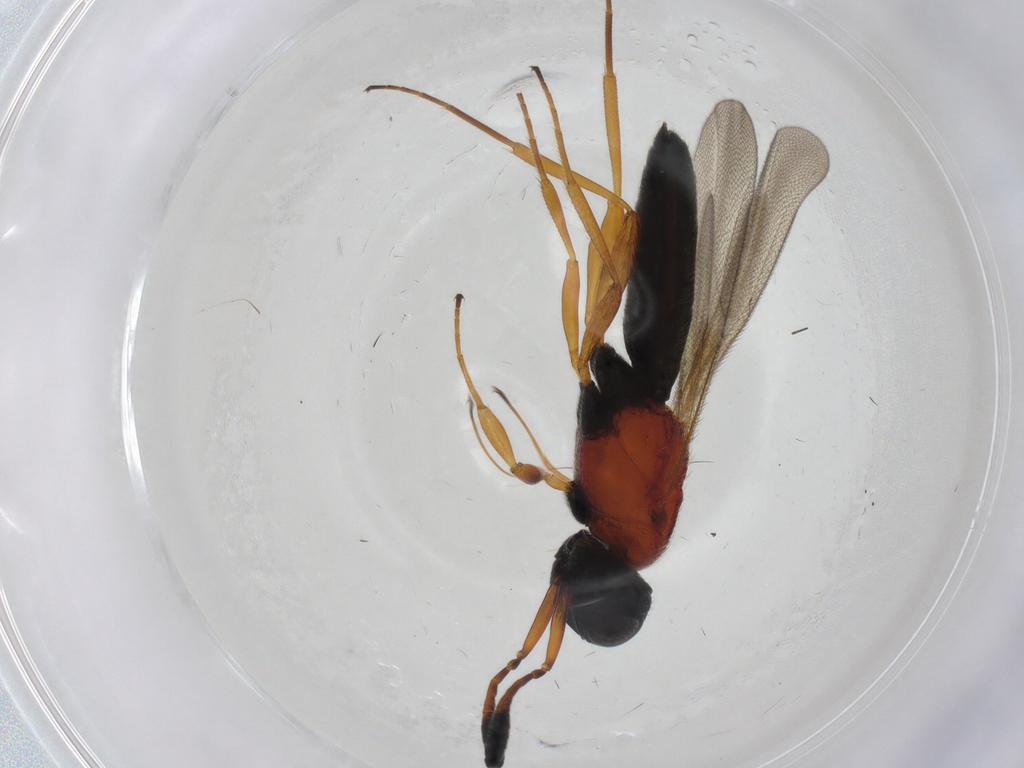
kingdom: Animalia
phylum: Arthropoda
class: Insecta
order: Hymenoptera
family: Scelionidae
